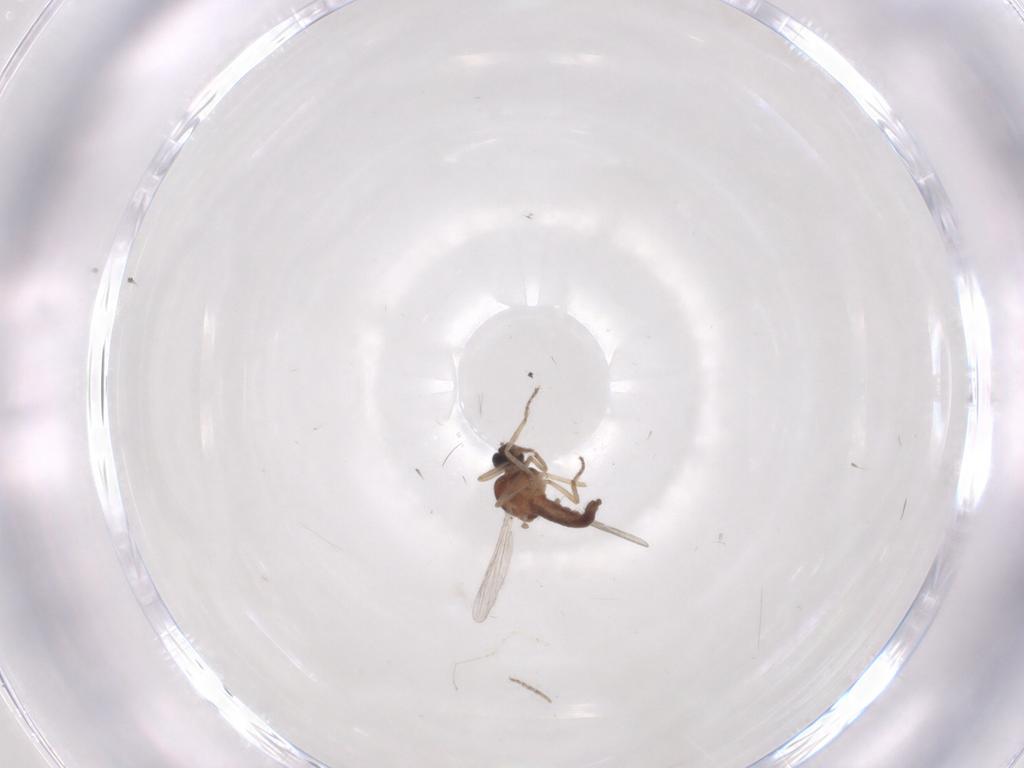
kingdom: Animalia
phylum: Arthropoda
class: Insecta
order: Diptera
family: Ceratopogonidae
